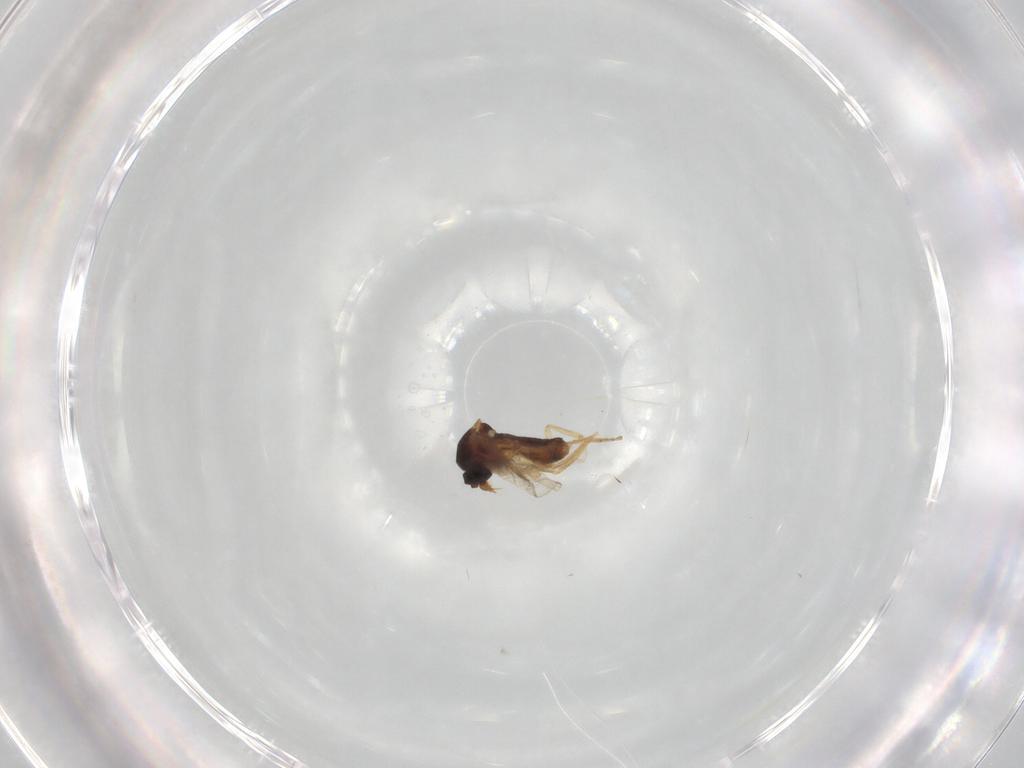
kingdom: Animalia
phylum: Arthropoda
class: Insecta
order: Diptera
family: Ceratopogonidae
